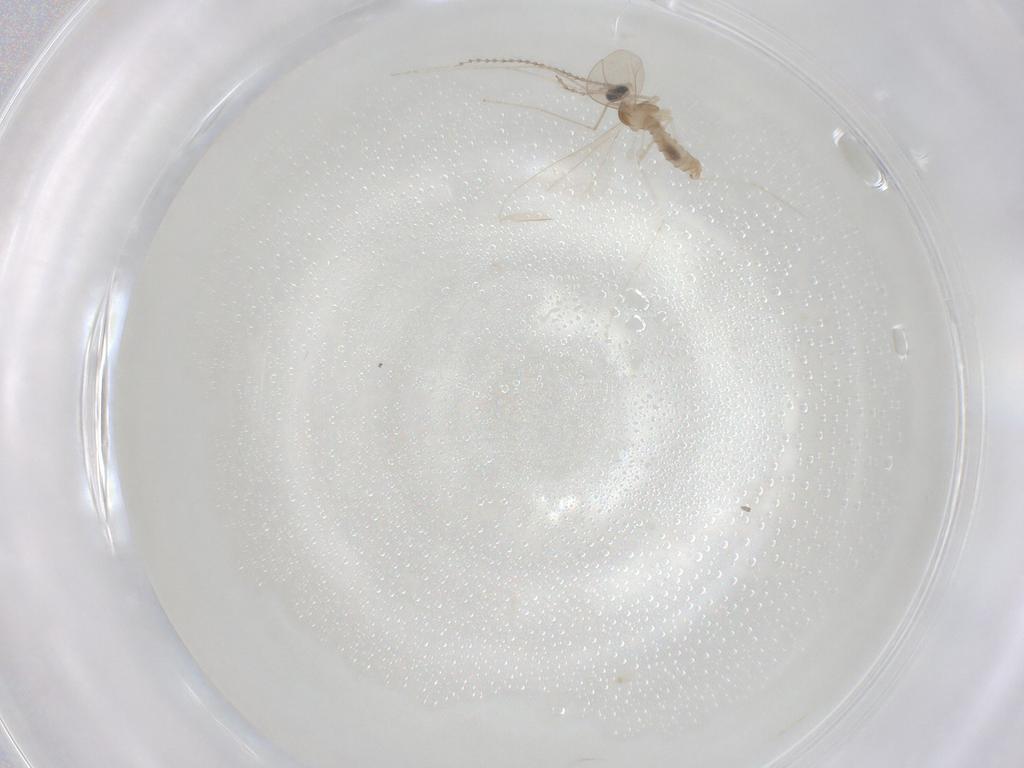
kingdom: Animalia
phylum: Arthropoda
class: Insecta
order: Diptera
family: Cecidomyiidae
